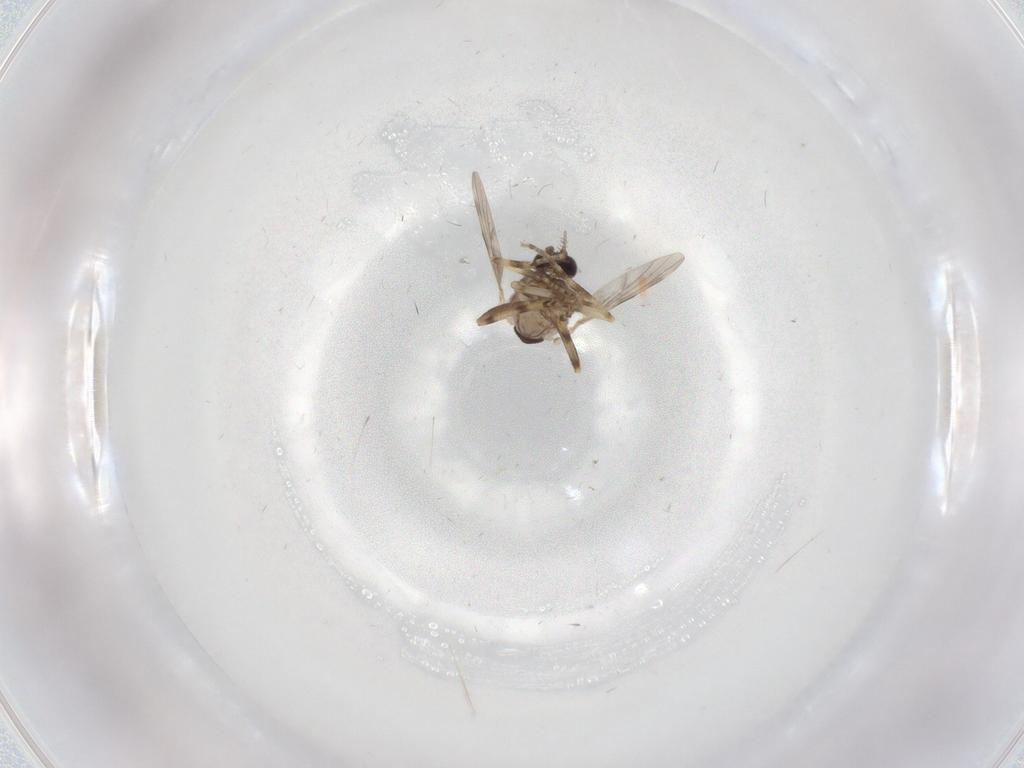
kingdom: Animalia
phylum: Arthropoda
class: Insecta
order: Diptera
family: Ceratopogonidae
